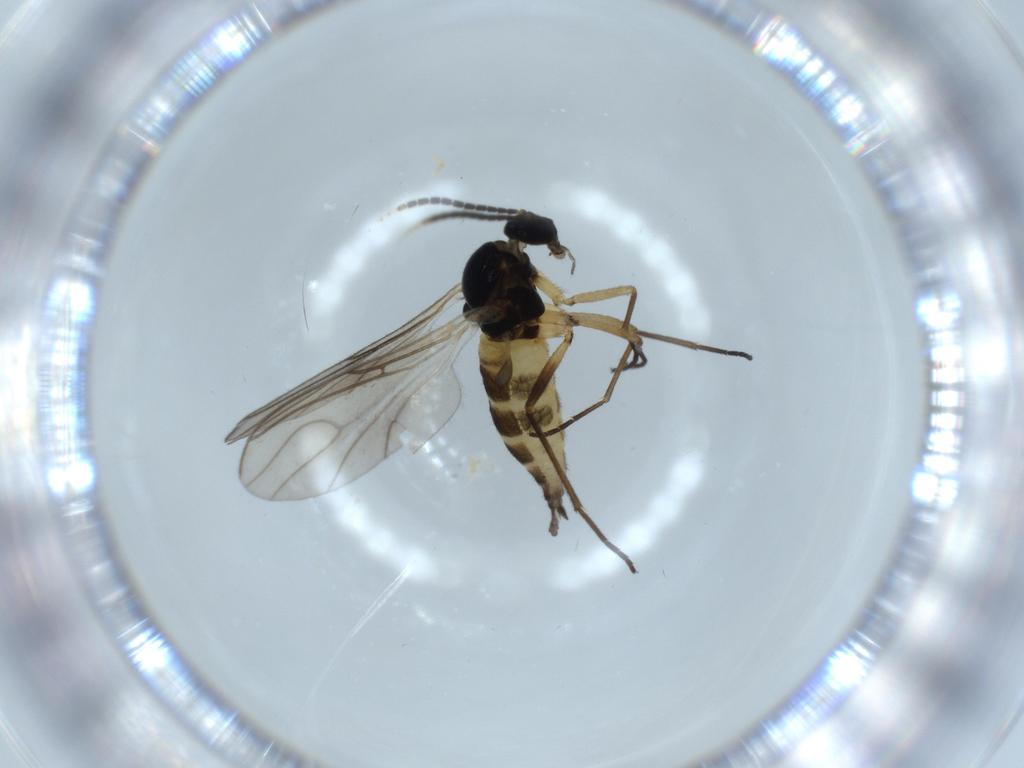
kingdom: Animalia
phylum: Arthropoda
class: Insecta
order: Diptera
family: Sciaridae
